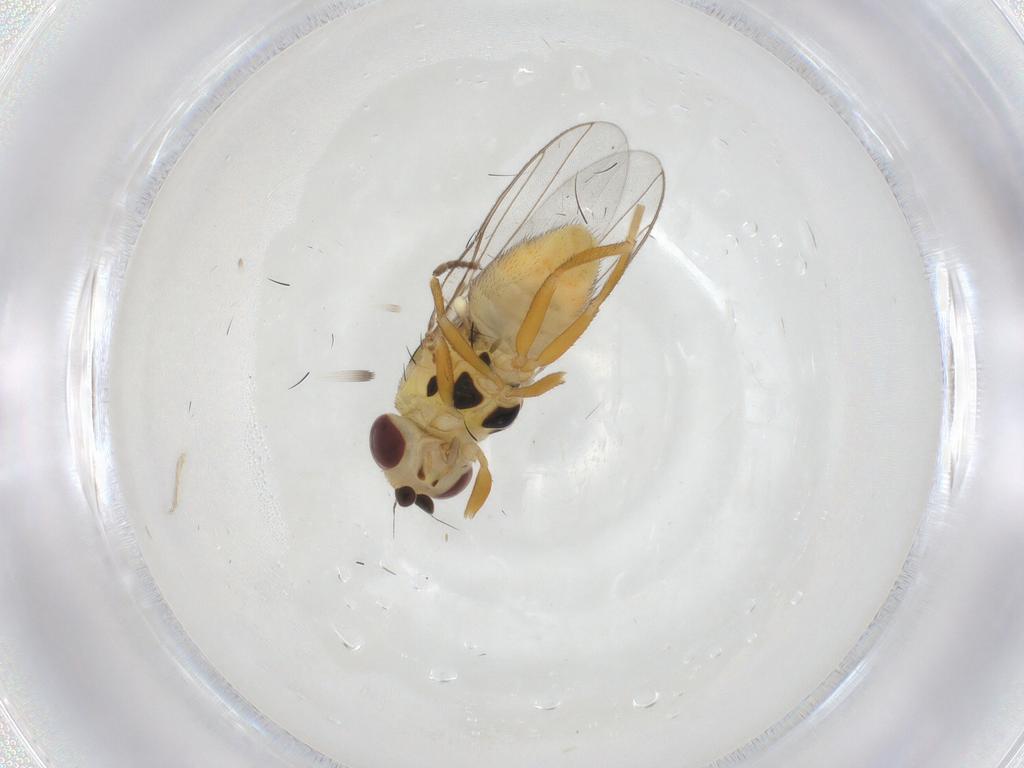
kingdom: Animalia
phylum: Arthropoda
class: Insecta
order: Diptera
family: Chloropidae
